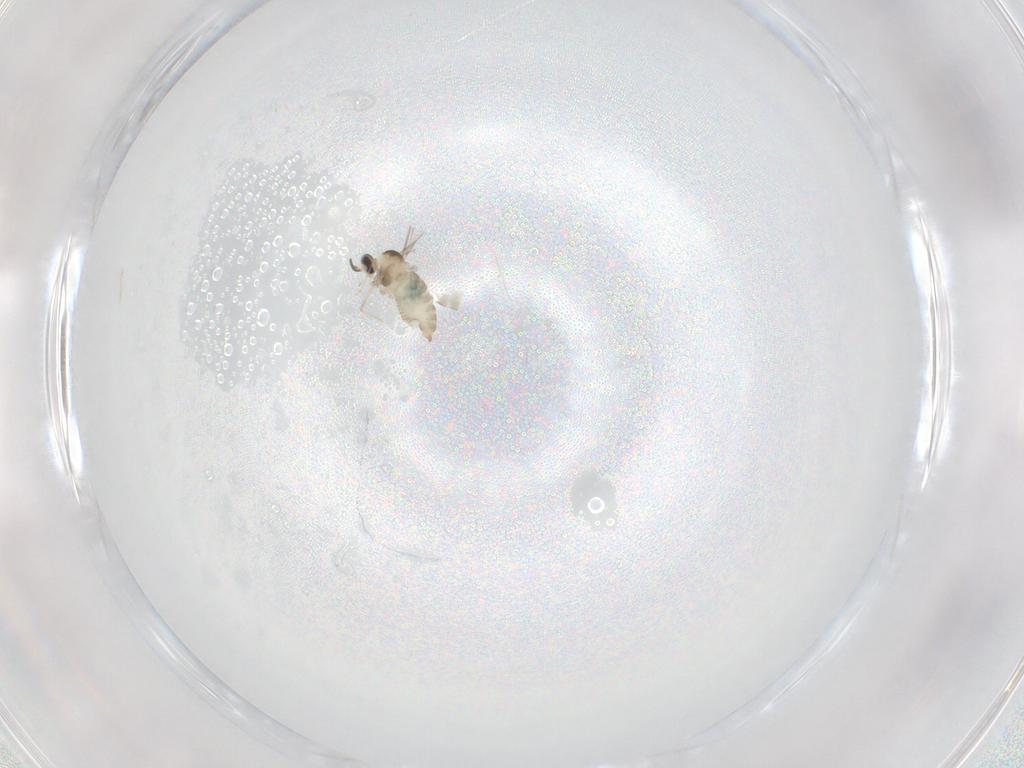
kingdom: Animalia
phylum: Arthropoda
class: Insecta
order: Diptera
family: Cecidomyiidae
